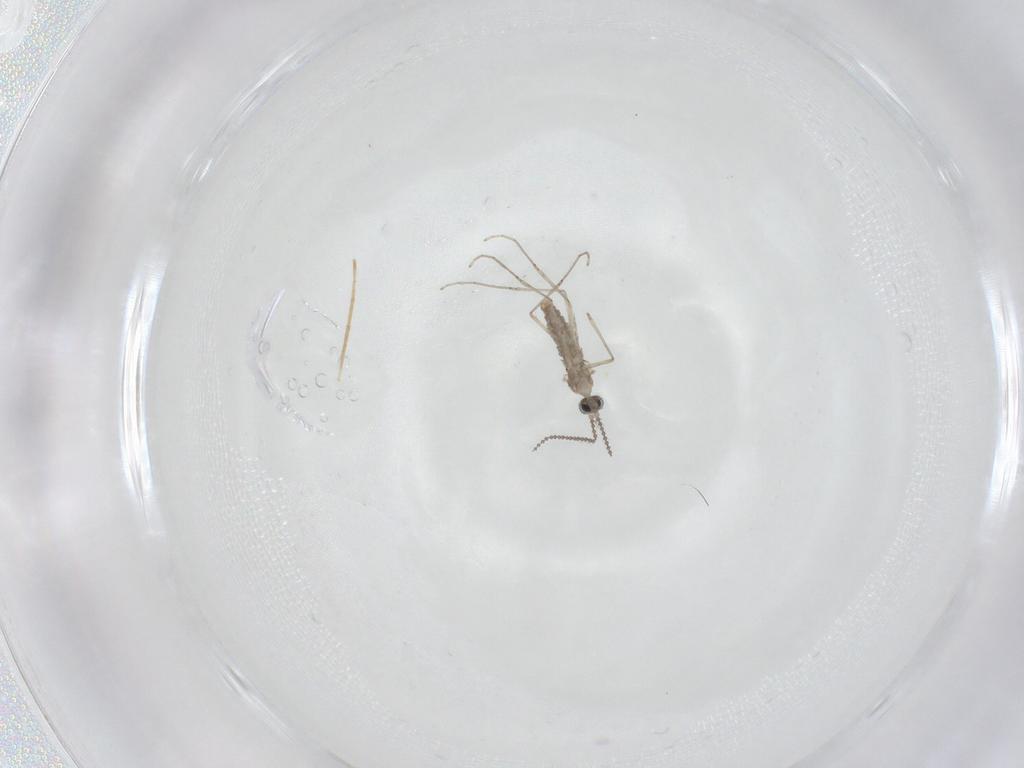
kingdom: Animalia
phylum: Arthropoda
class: Insecta
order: Diptera
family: Cecidomyiidae
